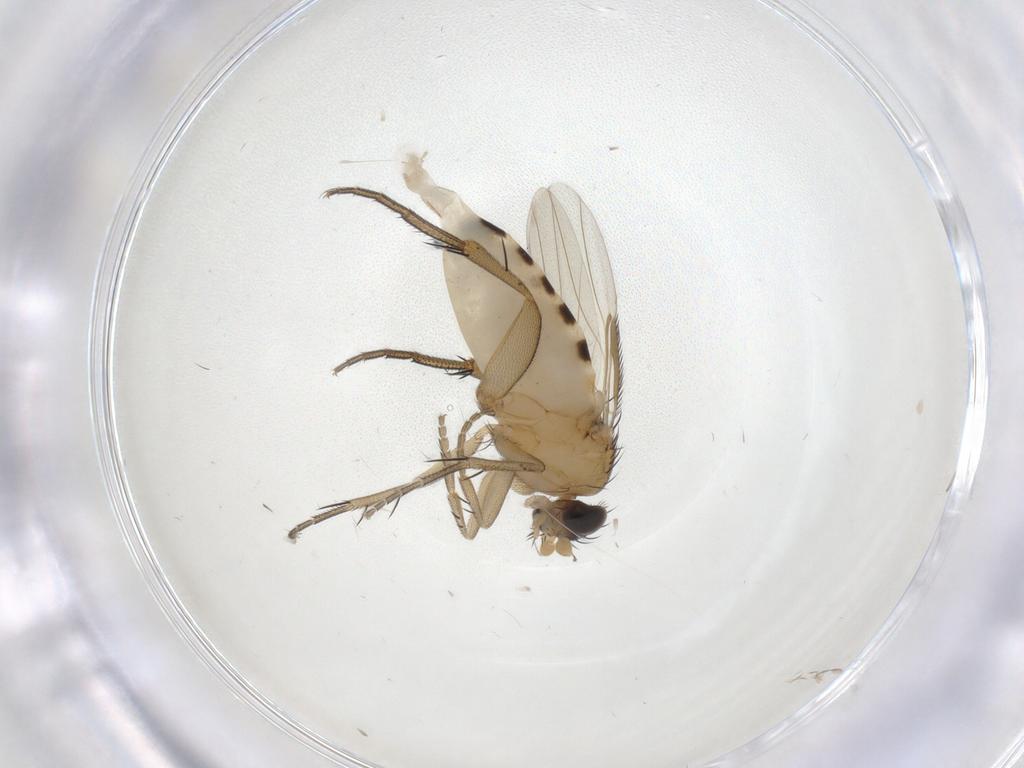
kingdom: Animalia
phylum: Arthropoda
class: Insecta
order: Diptera
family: Phoridae
